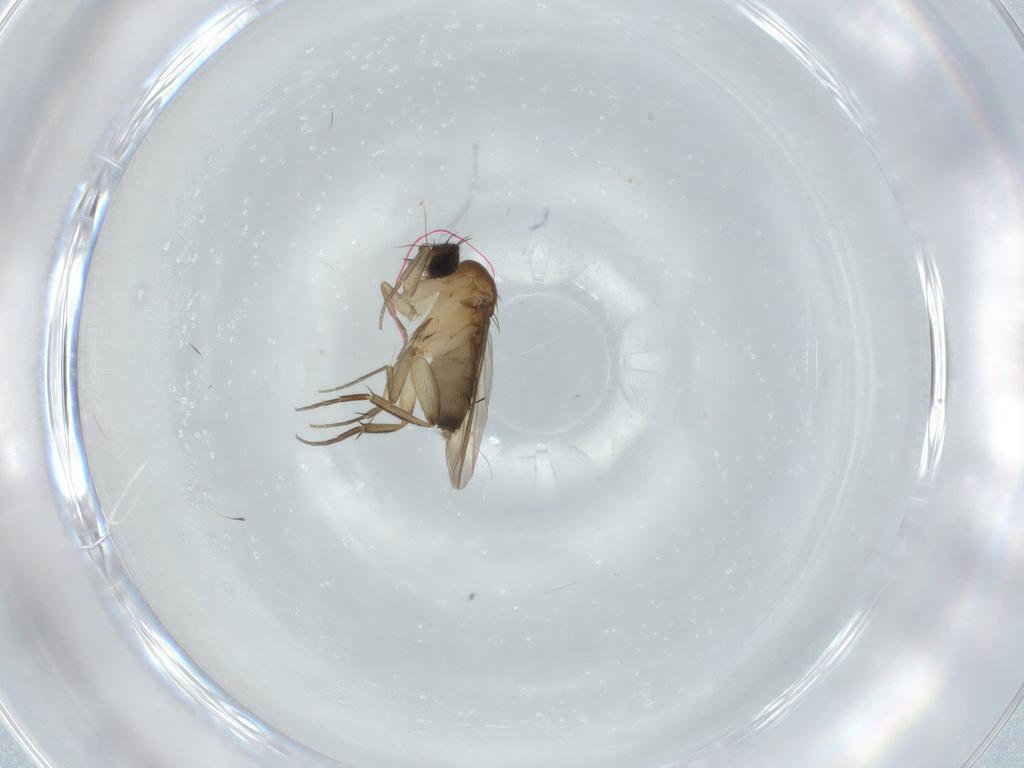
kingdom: Animalia
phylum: Arthropoda
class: Insecta
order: Diptera
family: Phoridae
